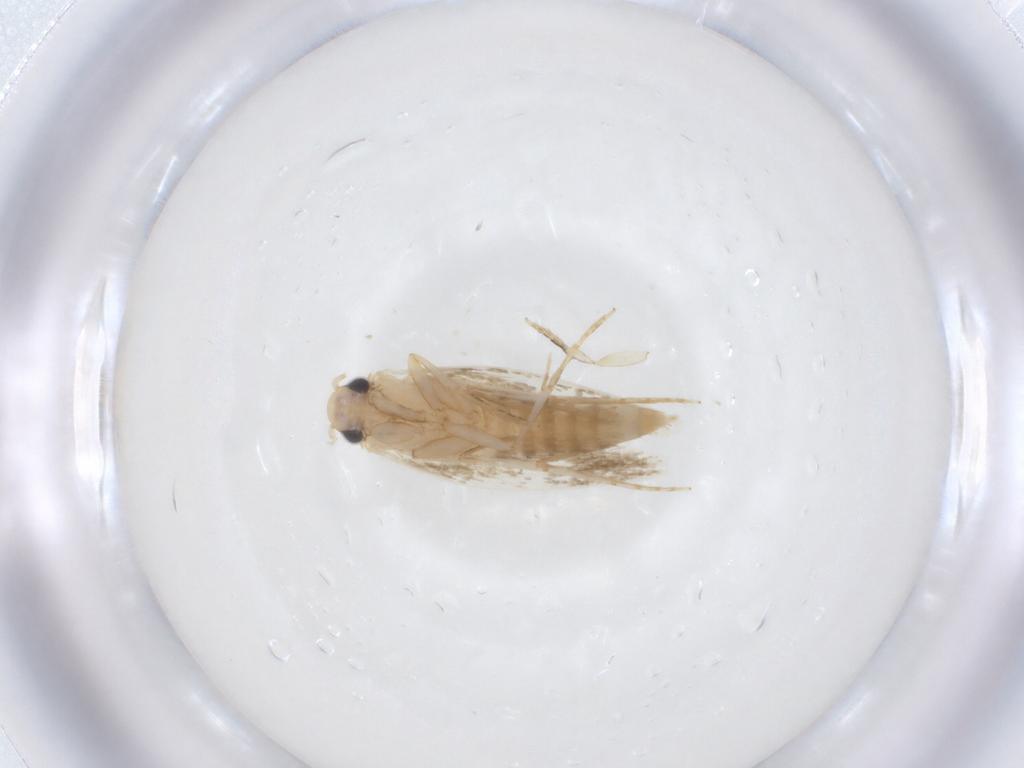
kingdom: Animalia
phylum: Arthropoda
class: Insecta
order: Lepidoptera
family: Tineidae
